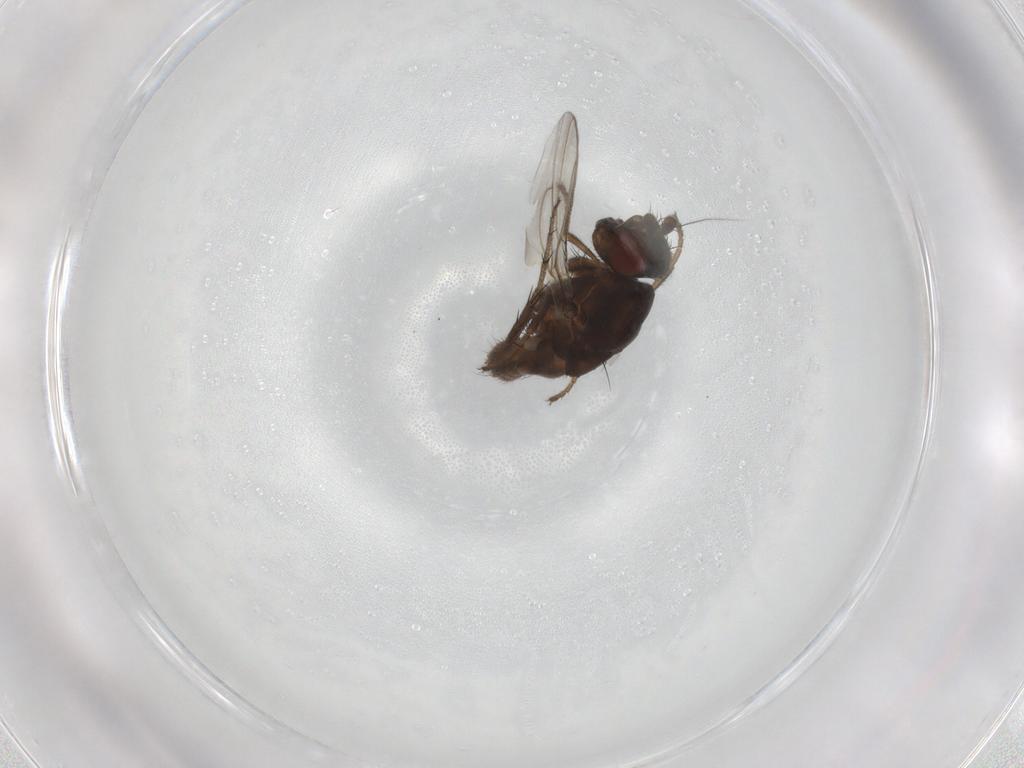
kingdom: Animalia
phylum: Arthropoda
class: Insecta
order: Diptera
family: Sphaeroceridae
